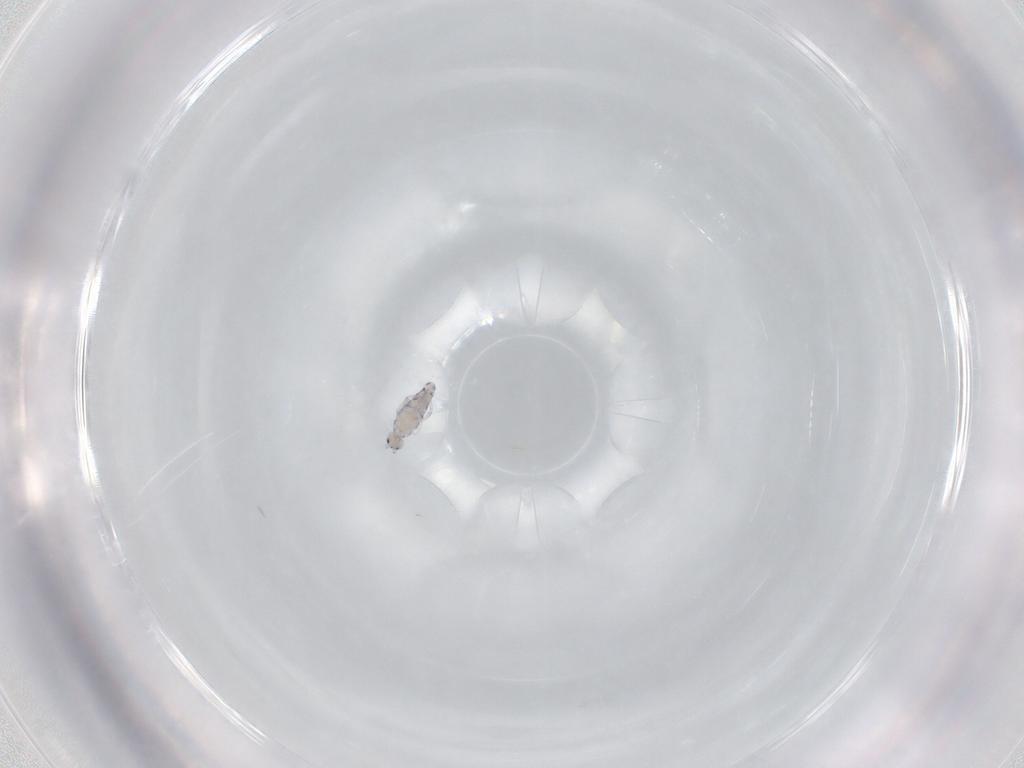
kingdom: Animalia
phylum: Arthropoda
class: Collembola
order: Entomobryomorpha
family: Entomobryidae
